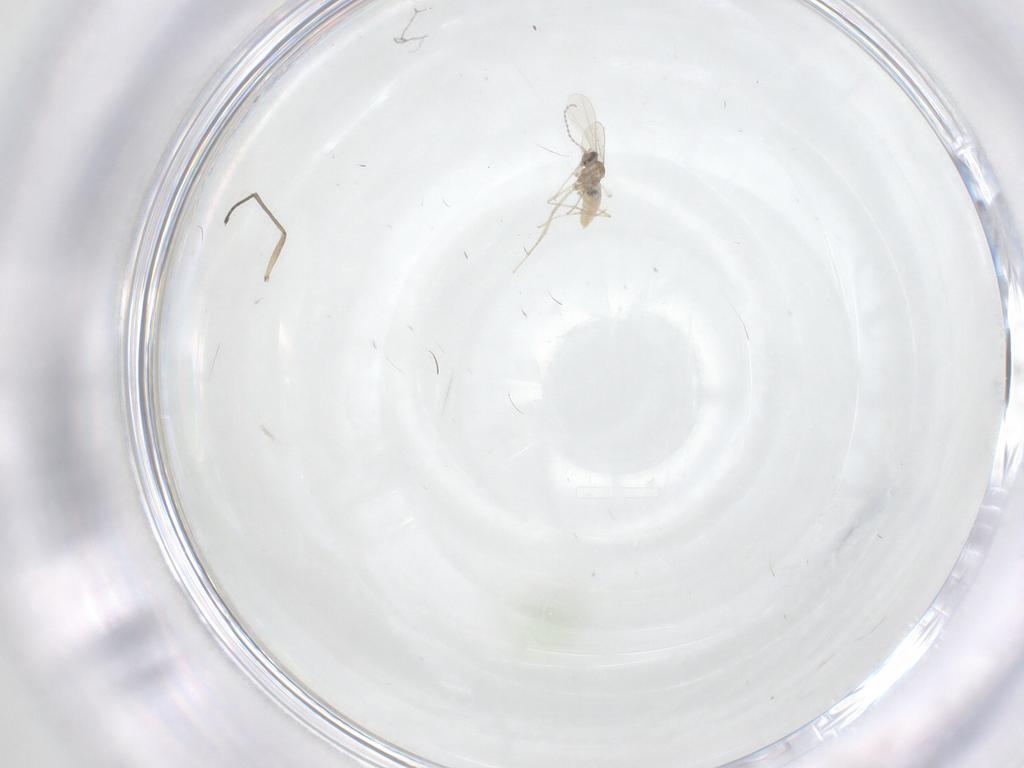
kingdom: Animalia
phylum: Arthropoda
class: Insecta
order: Diptera
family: Cecidomyiidae
